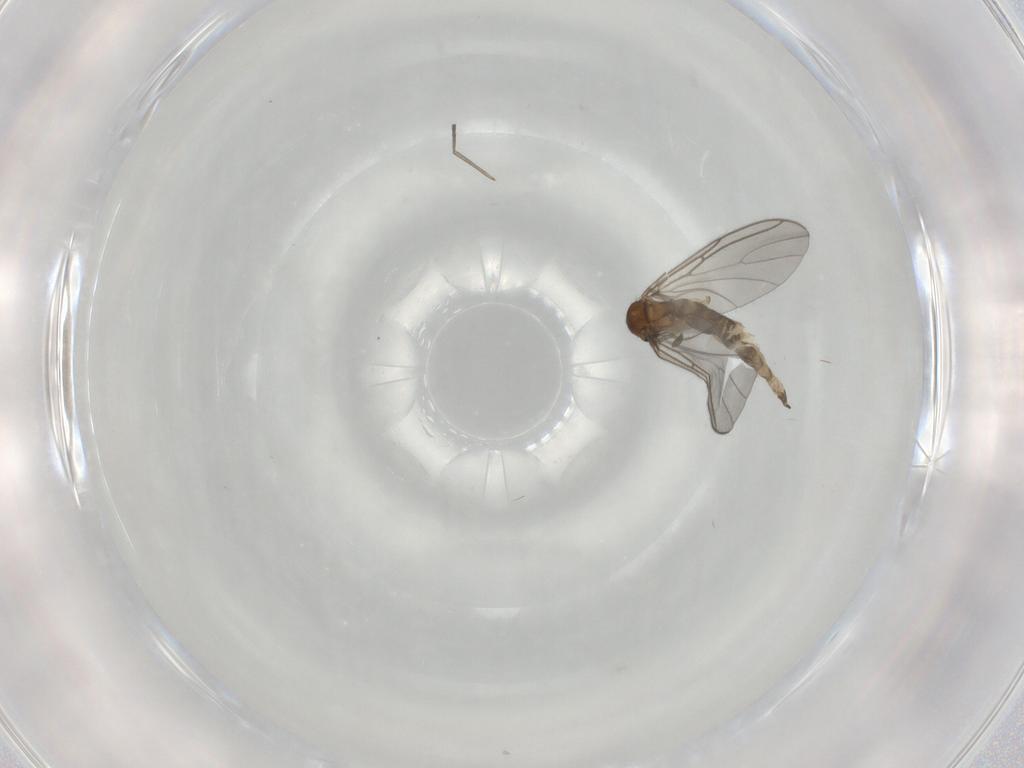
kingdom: Animalia
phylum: Arthropoda
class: Insecta
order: Diptera
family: Sciaridae
